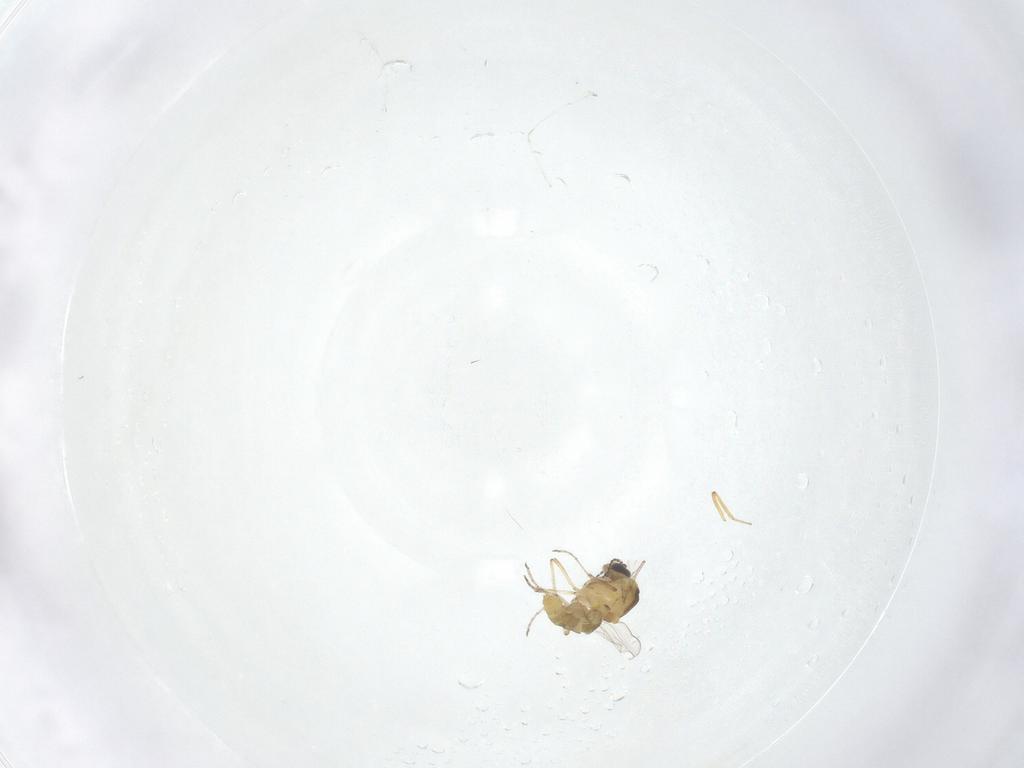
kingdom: Animalia
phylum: Arthropoda
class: Insecta
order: Diptera
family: Ceratopogonidae
